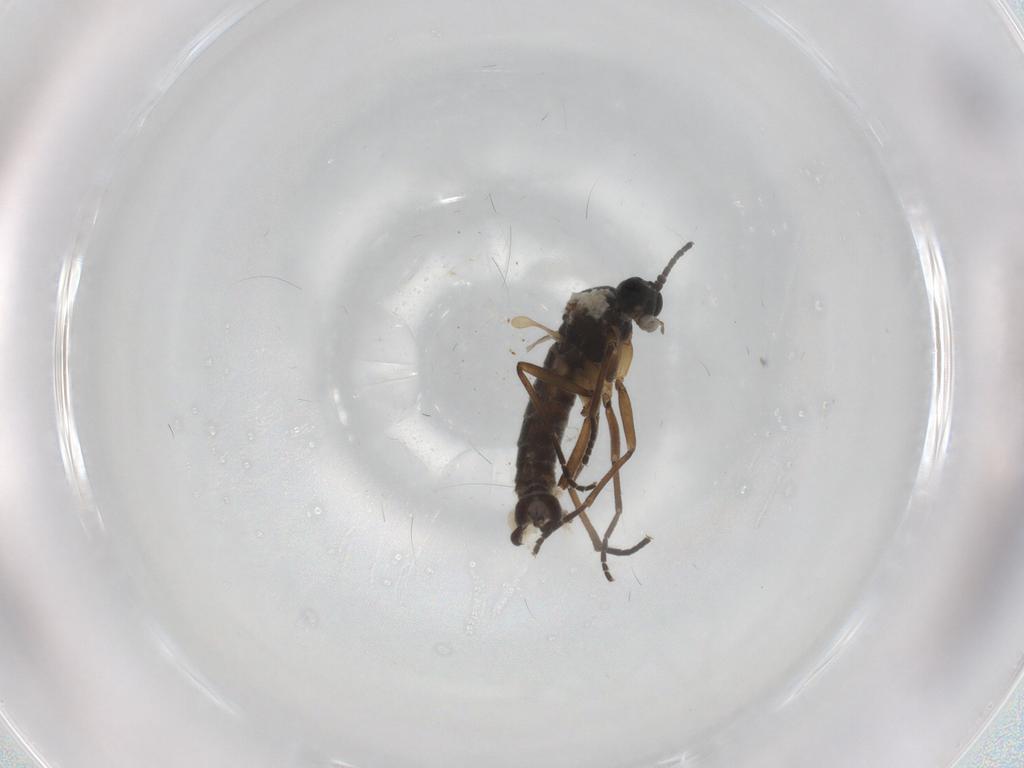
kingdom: Animalia
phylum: Arthropoda
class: Insecta
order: Diptera
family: Sciaridae
